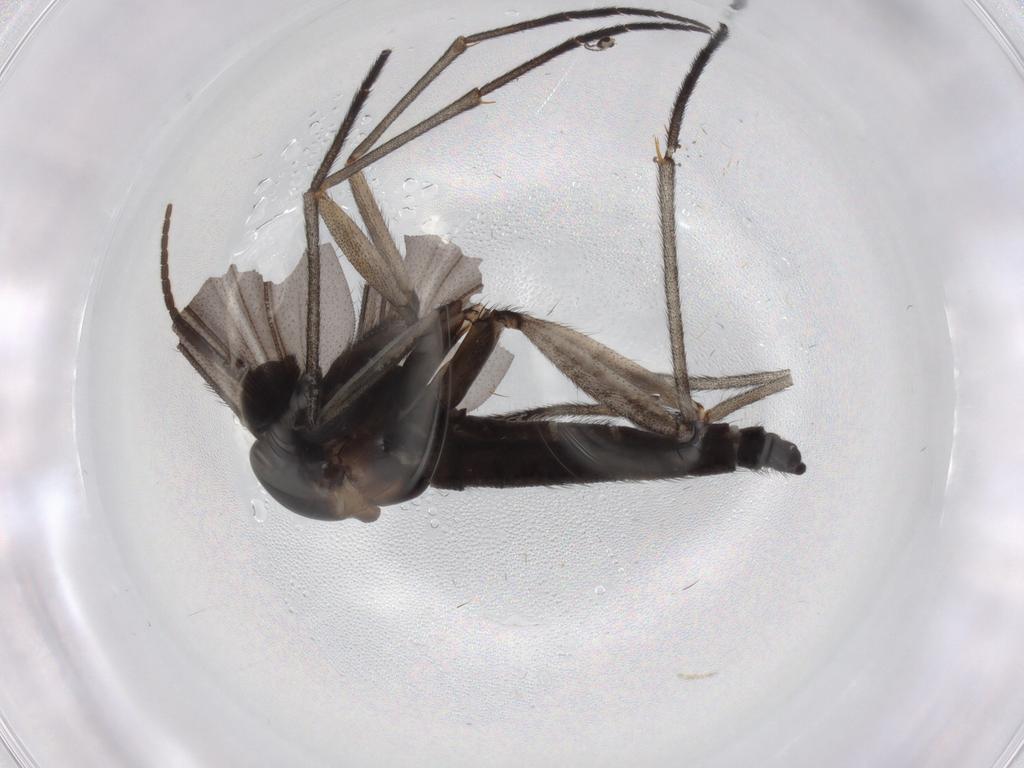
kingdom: Animalia
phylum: Arthropoda
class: Insecta
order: Diptera
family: Sciaridae
